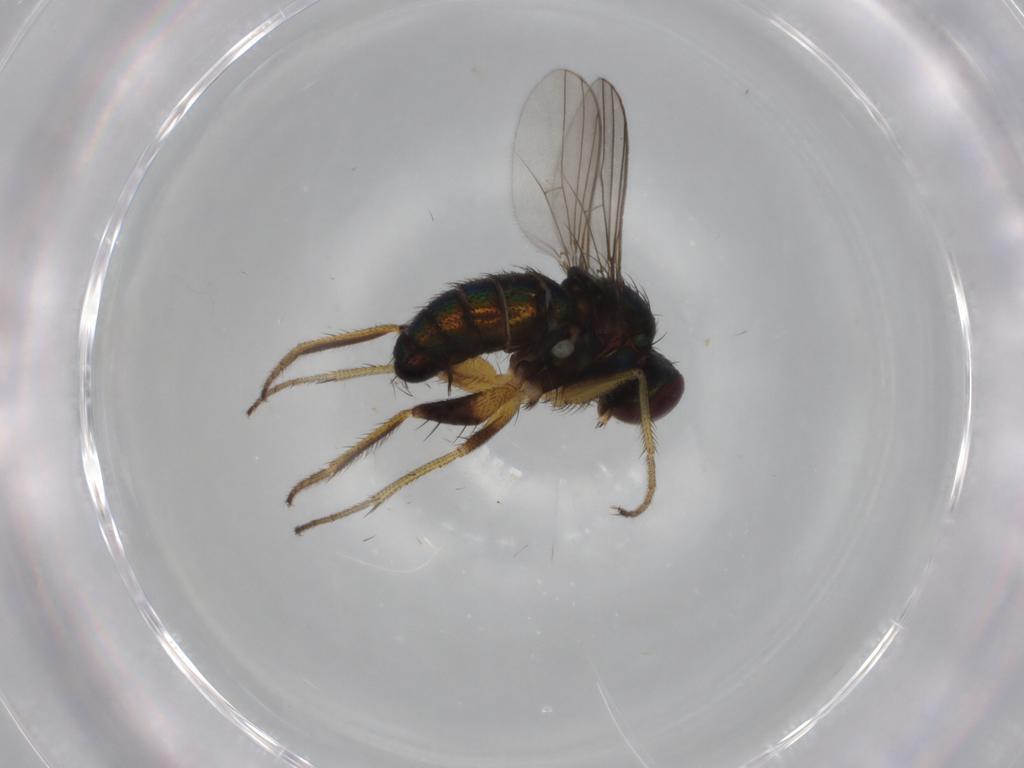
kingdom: Animalia
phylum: Arthropoda
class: Insecta
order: Diptera
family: Dolichopodidae
